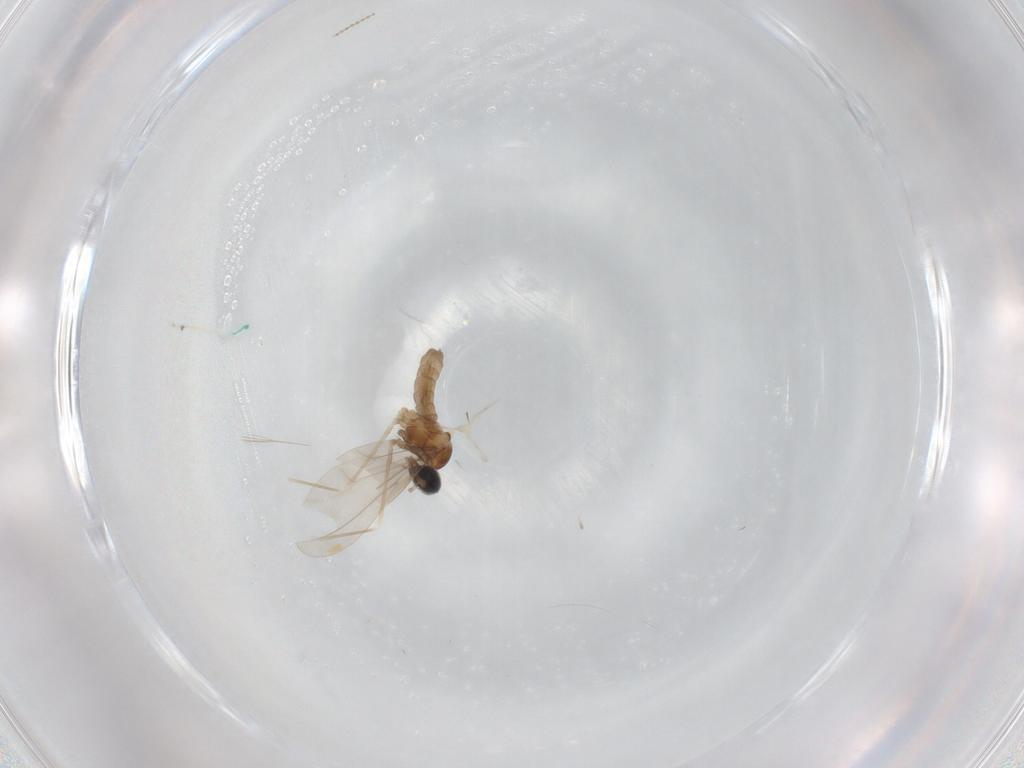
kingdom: Animalia
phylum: Arthropoda
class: Insecta
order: Diptera
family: Cecidomyiidae
